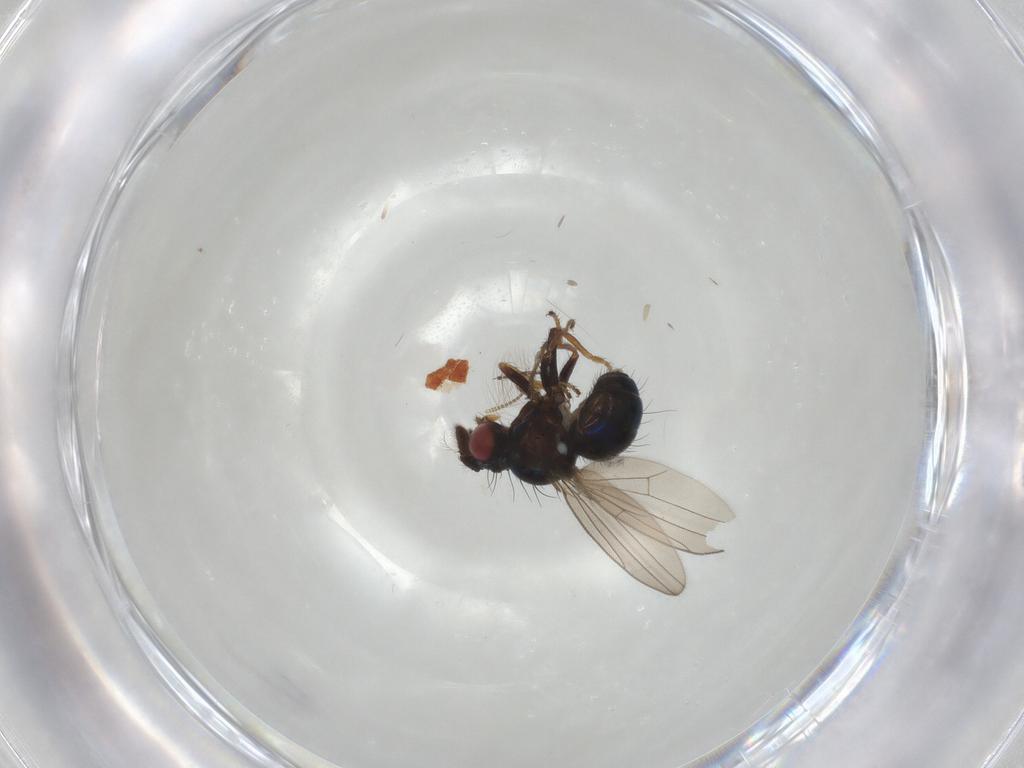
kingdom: Animalia
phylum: Arthropoda
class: Insecta
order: Diptera
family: Ephydridae
